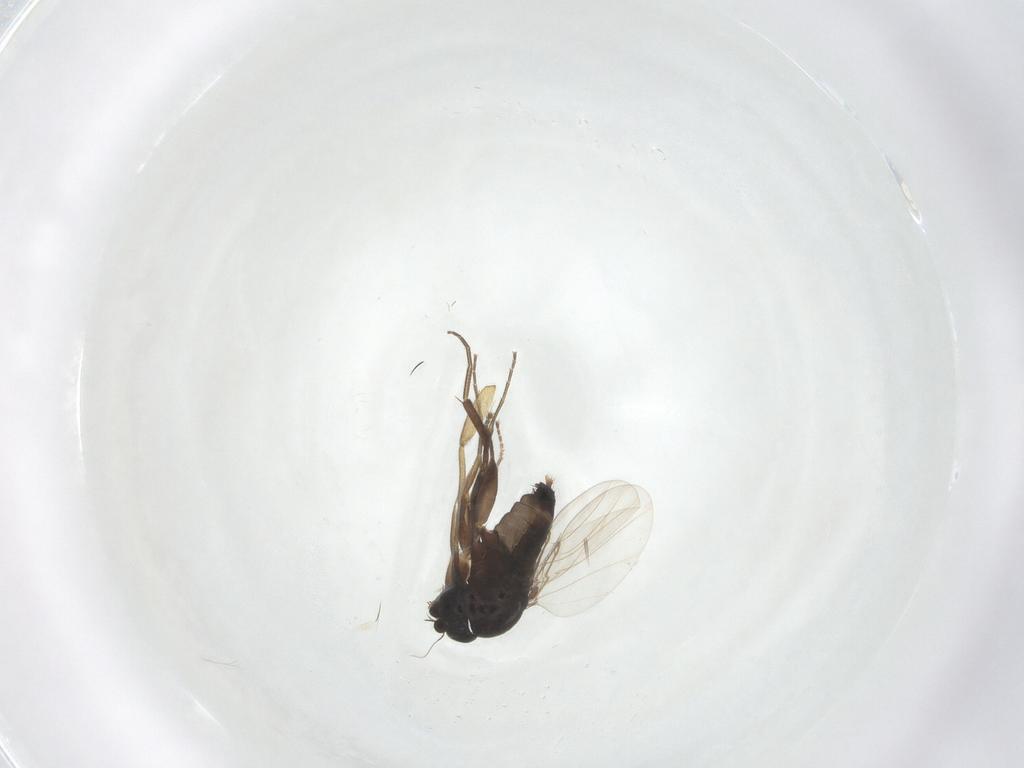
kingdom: Animalia
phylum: Arthropoda
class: Insecta
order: Diptera
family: Phoridae
